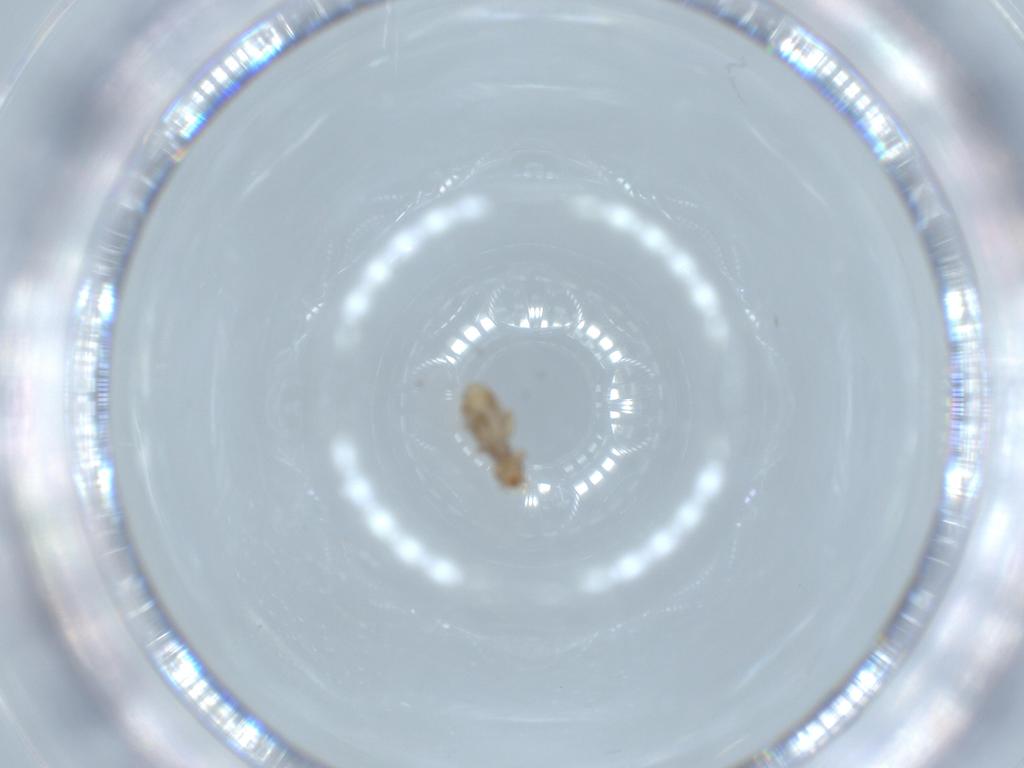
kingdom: Animalia
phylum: Arthropoda
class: Insecta
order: Psocodea
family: Liposcelididae
